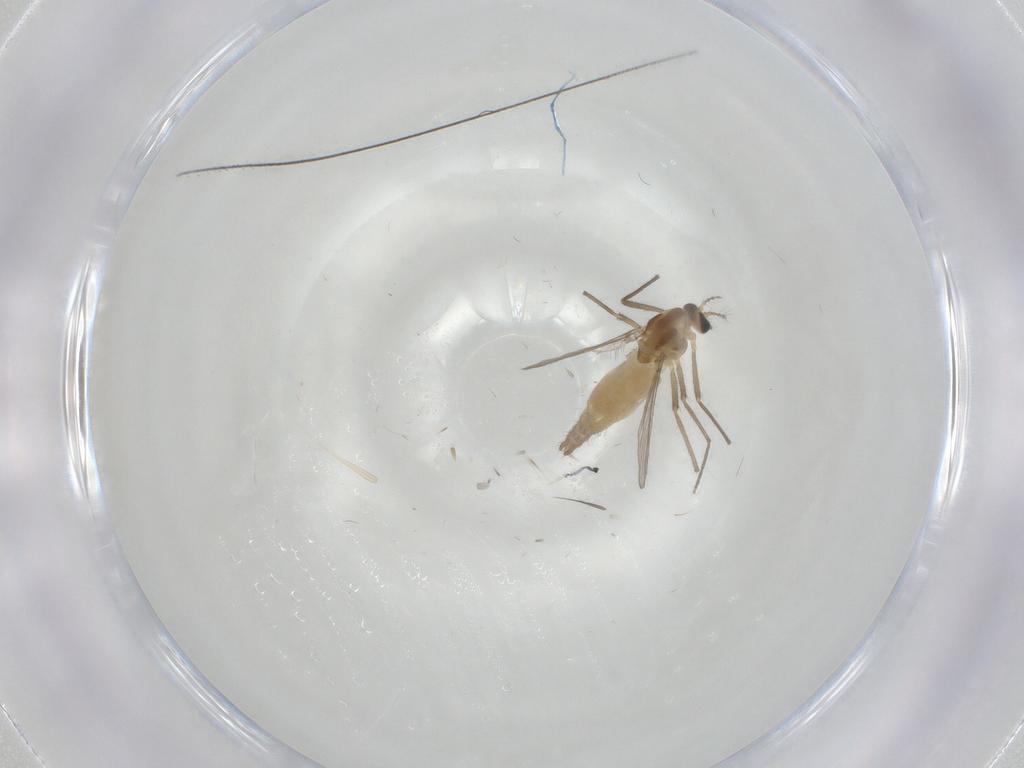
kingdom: Animalia
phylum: Arthropoda
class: Insecta
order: Diptera
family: Chironomidae
